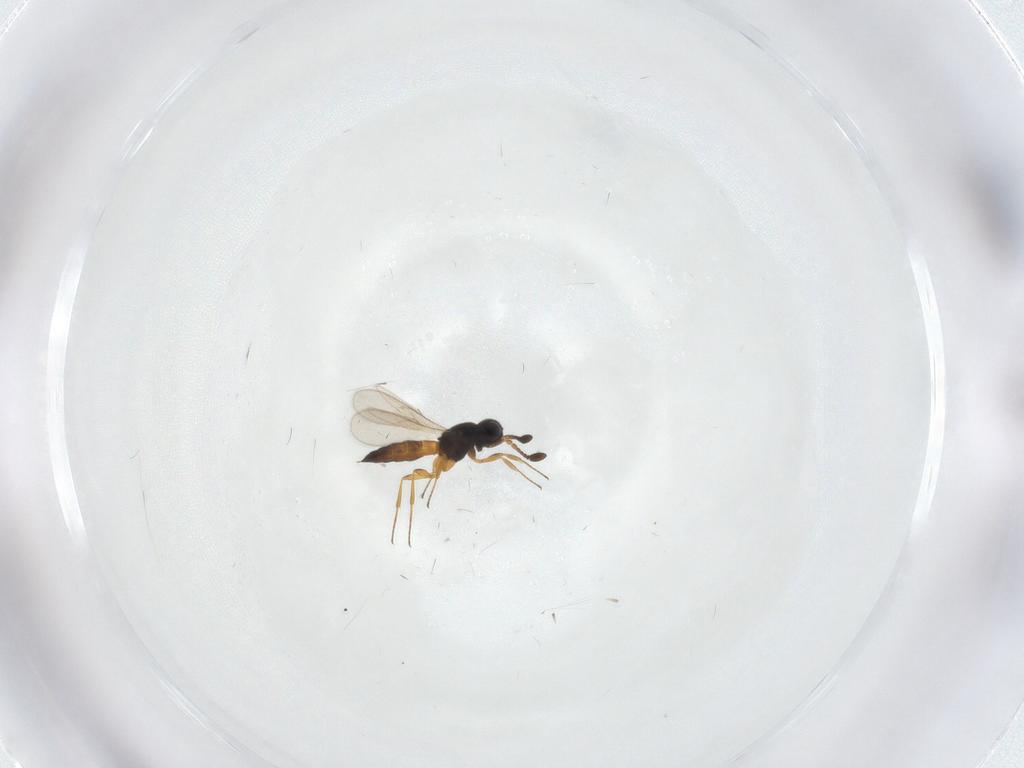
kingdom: Animalia
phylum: Arthropoda
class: Insecta
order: Hymenoptera
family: Scelionidae
